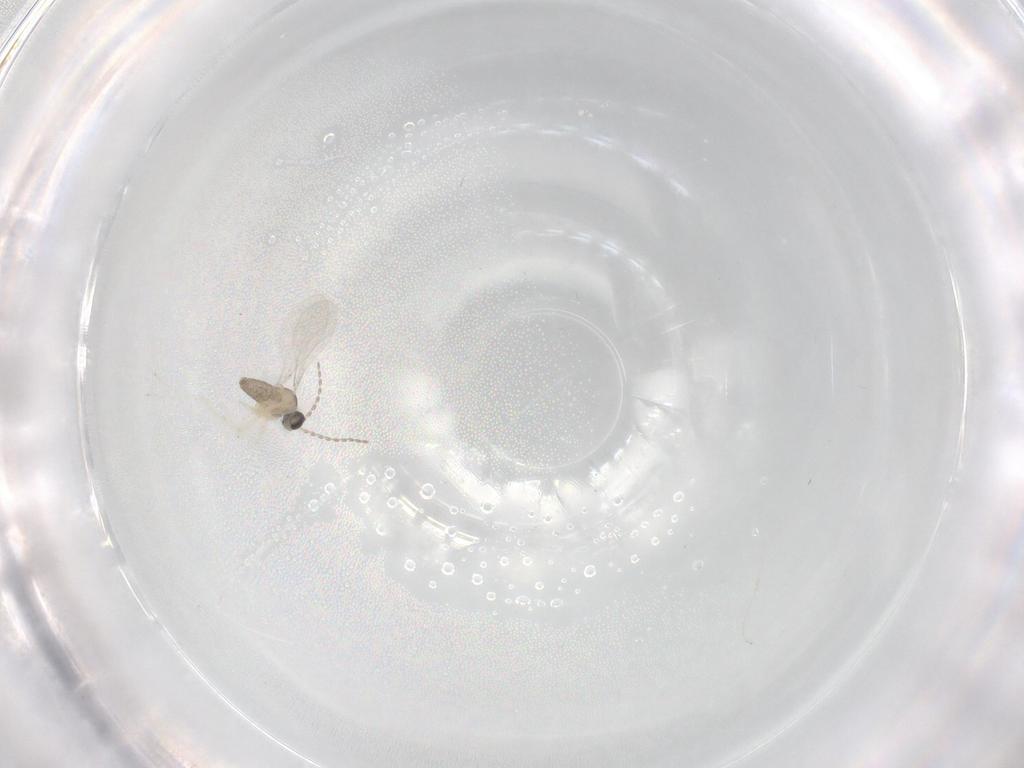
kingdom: Animalia
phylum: Arthropoda
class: Insecta
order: Diptera
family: Cecidomyiidae
